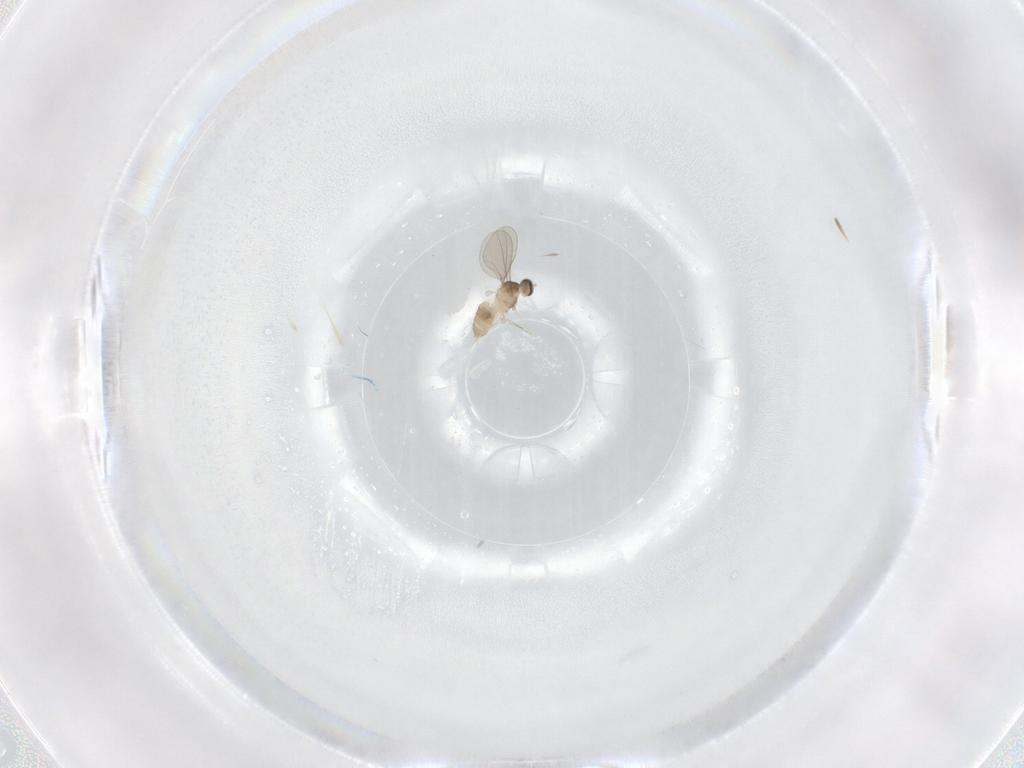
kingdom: Animalia
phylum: Arthropoda
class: Insecta
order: Diptera
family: Cecidomyiidae
